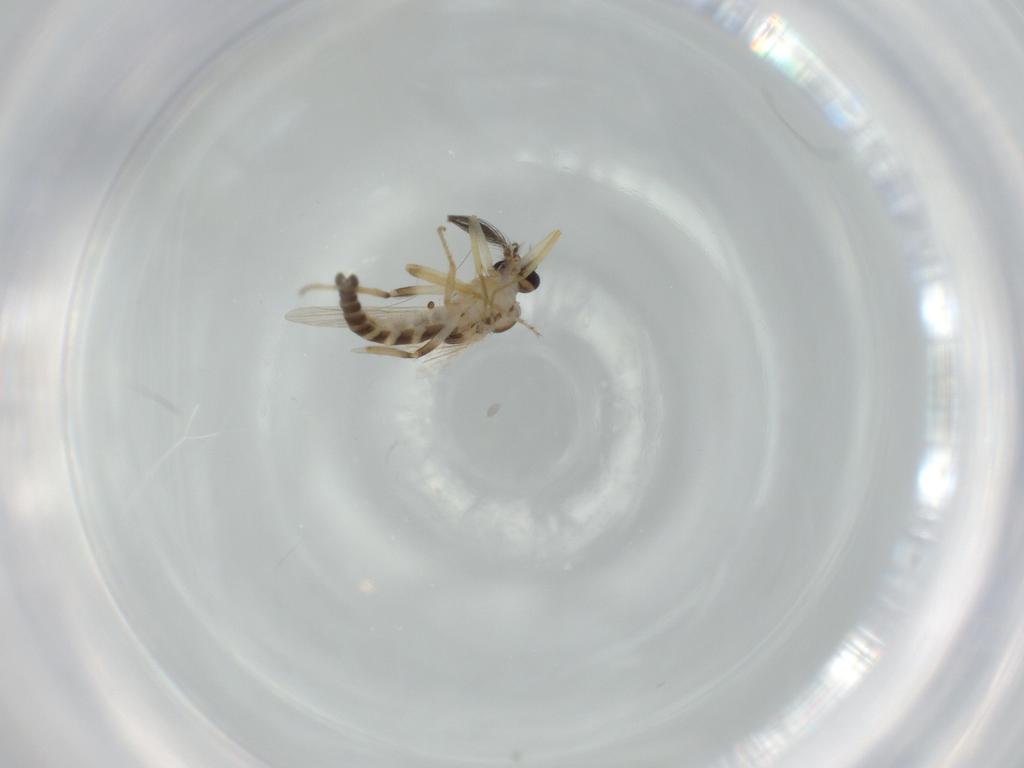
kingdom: Animalia
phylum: Arthropoda
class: Insecta
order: Diptera
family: Ceratopogonidae
